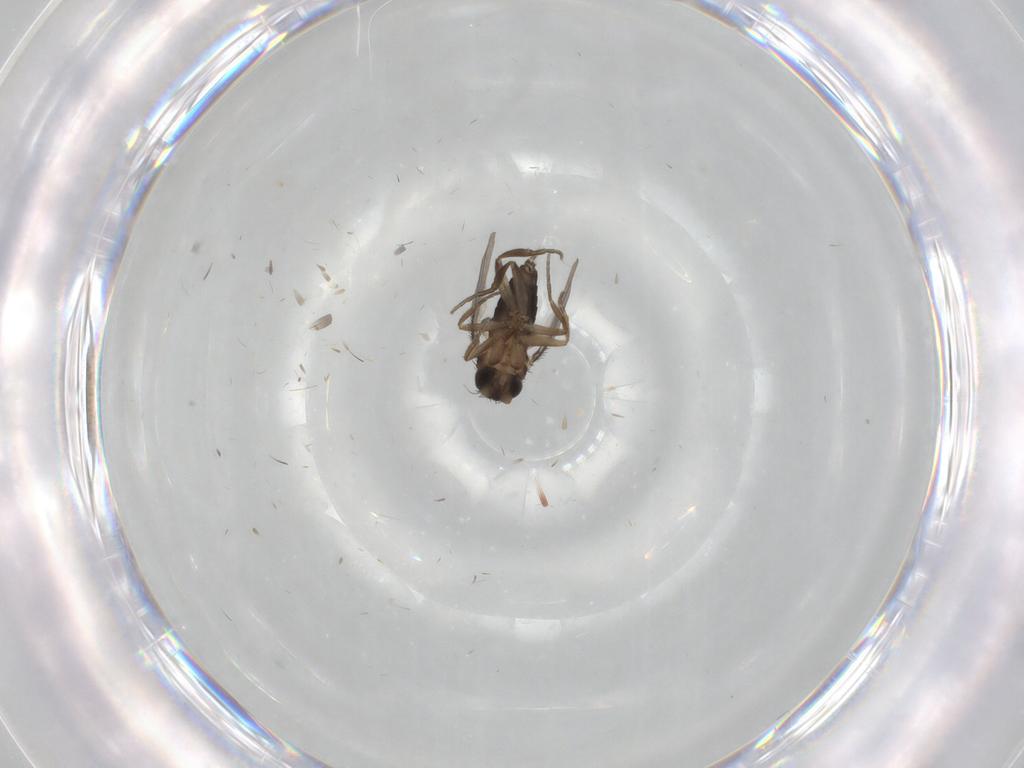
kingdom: Animalia
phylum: Arthropoda
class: Insecta
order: Diptera
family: Phoridae
